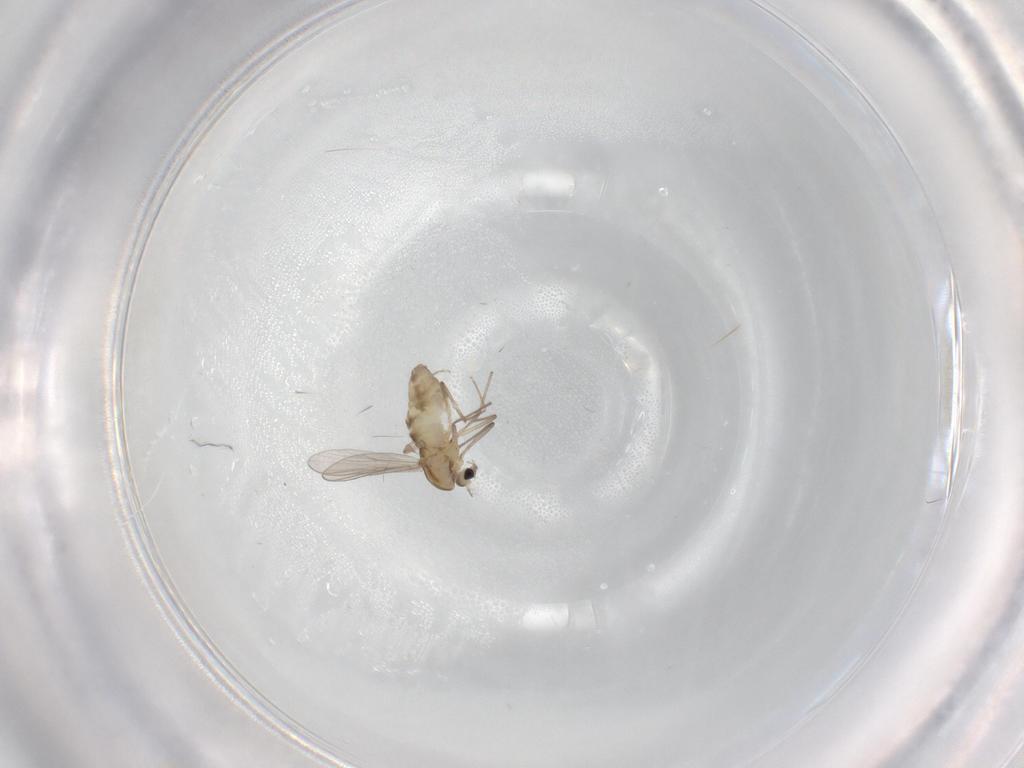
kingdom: Animalia
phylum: Arthropoda
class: Insecta
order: Diptera
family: Chironomidae
